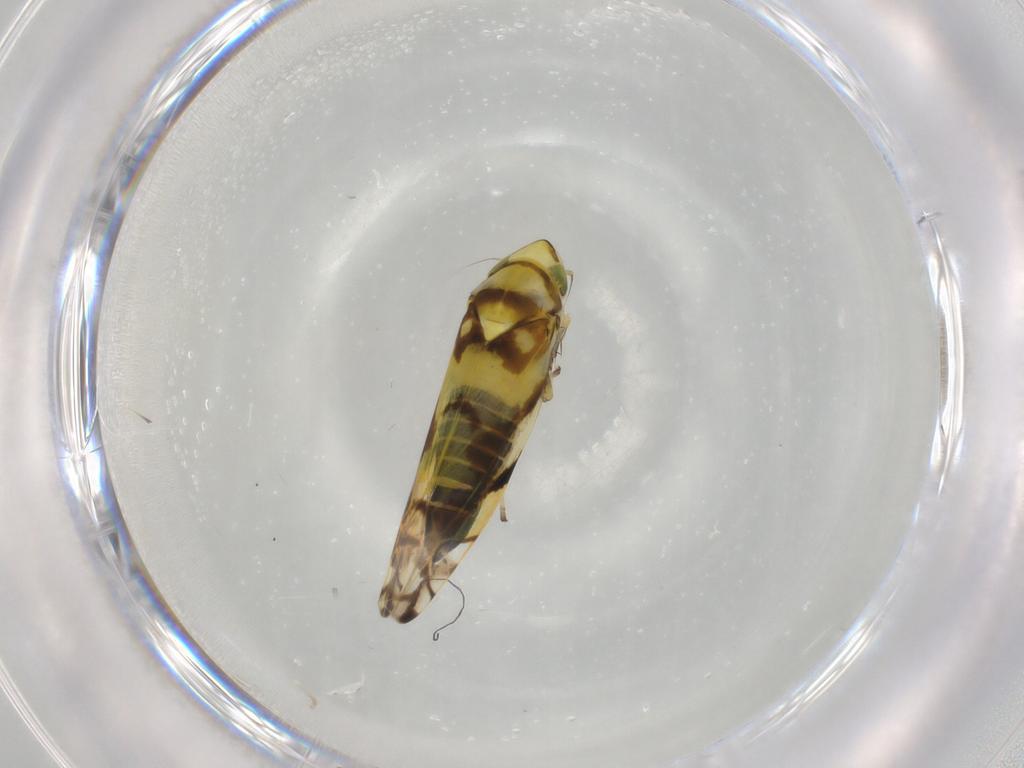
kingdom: Animalia
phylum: Arthropoda
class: Insecta
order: Hemiptera
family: Cicadellidae
